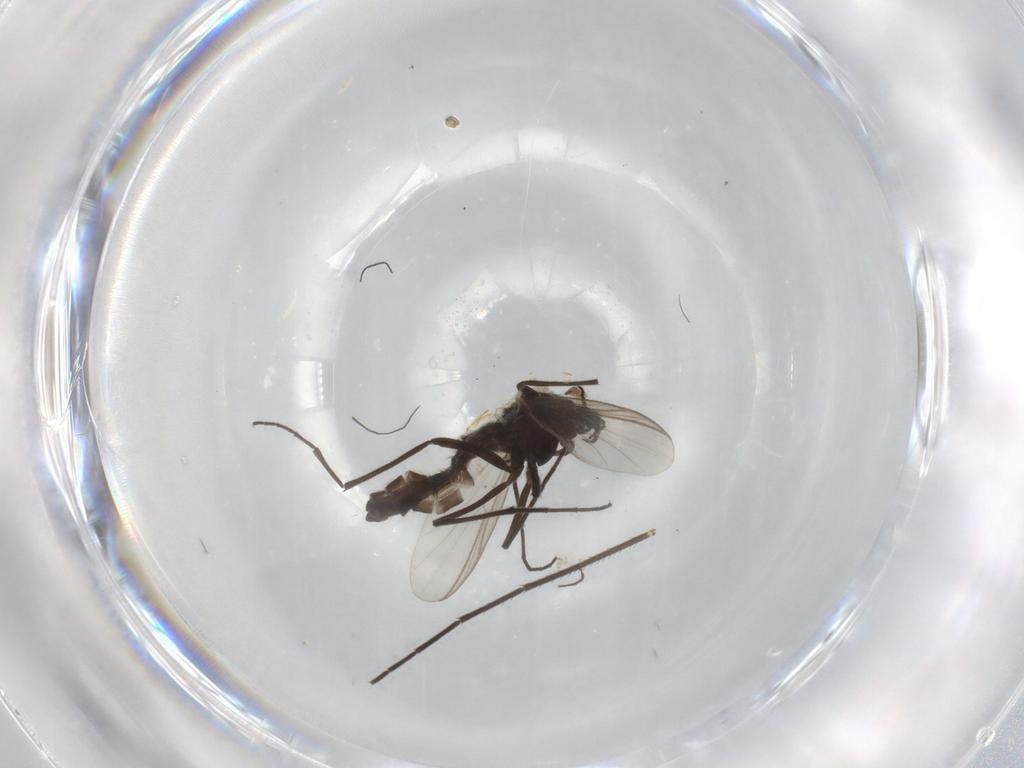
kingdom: Animalia
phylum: Arthropoda
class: Insecta
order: Diptera
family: Chironomidae
